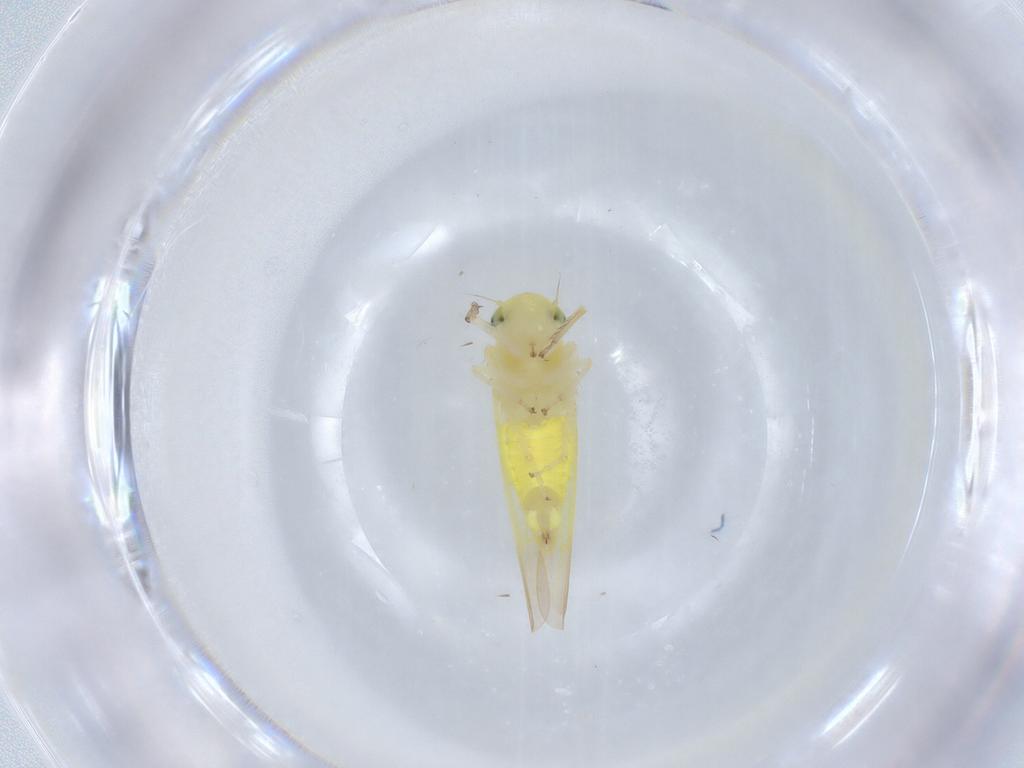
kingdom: Animalia
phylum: Arthropoda
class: Insecta
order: Hemiptera
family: Cicadellidae
